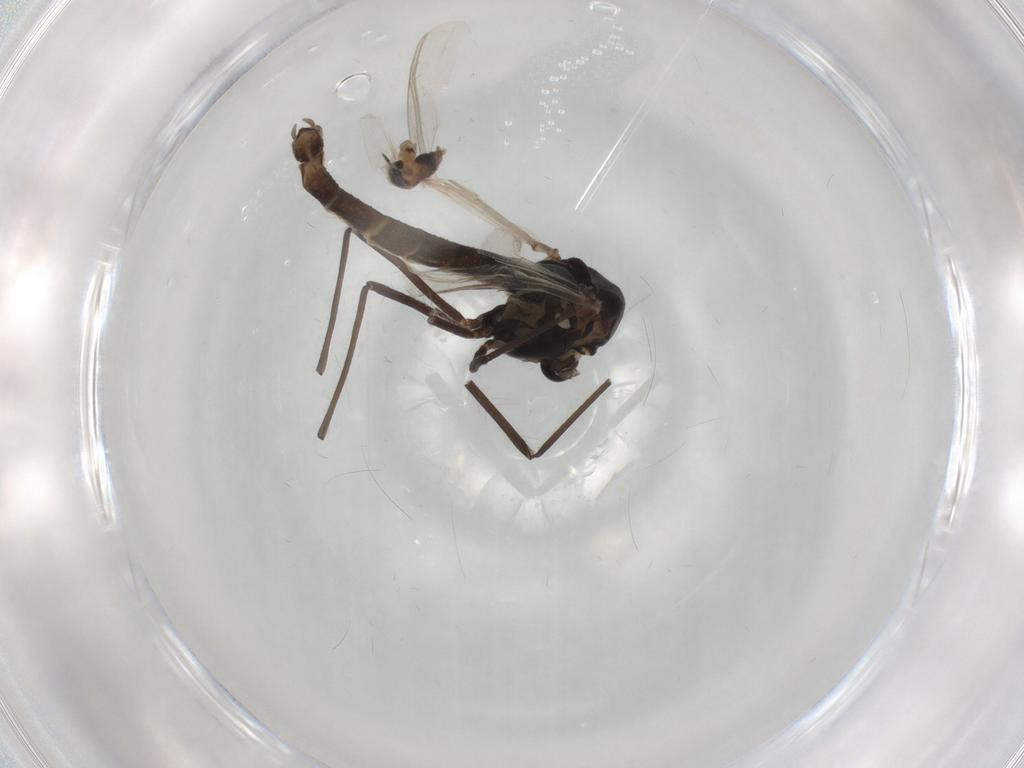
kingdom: Animalia
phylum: Arthropoda
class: Insecta
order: Diptera
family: Chironomidae
